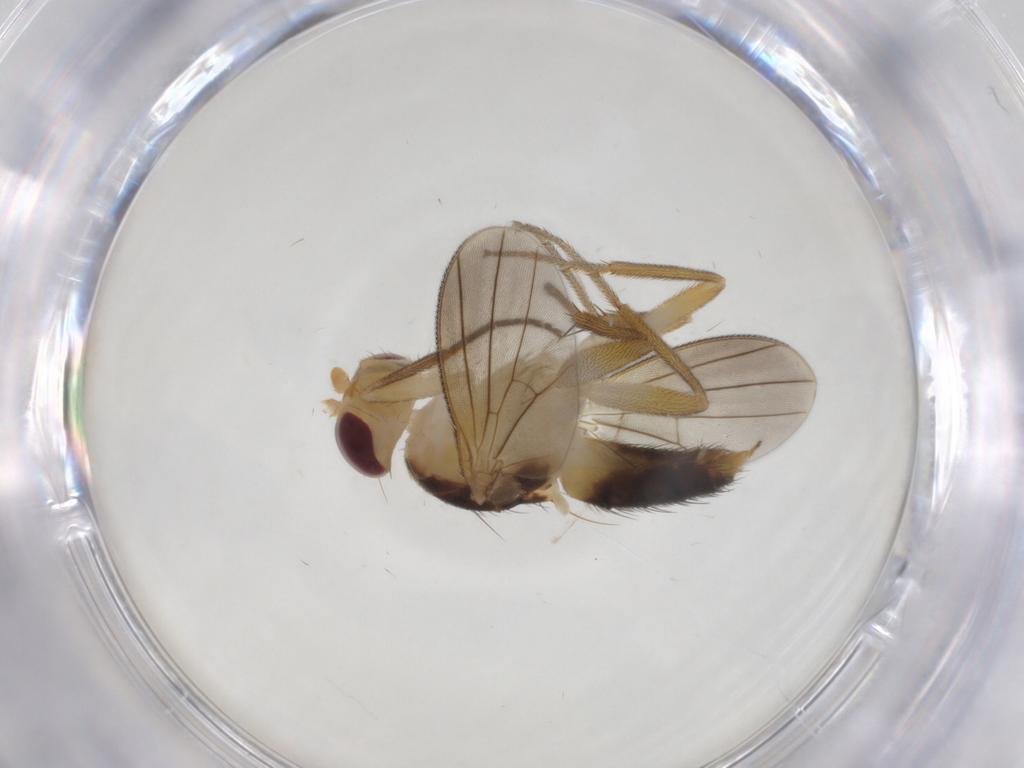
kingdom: Animalia
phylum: Arthropoda
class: Insecta
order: Diptera
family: Agromyzidae
